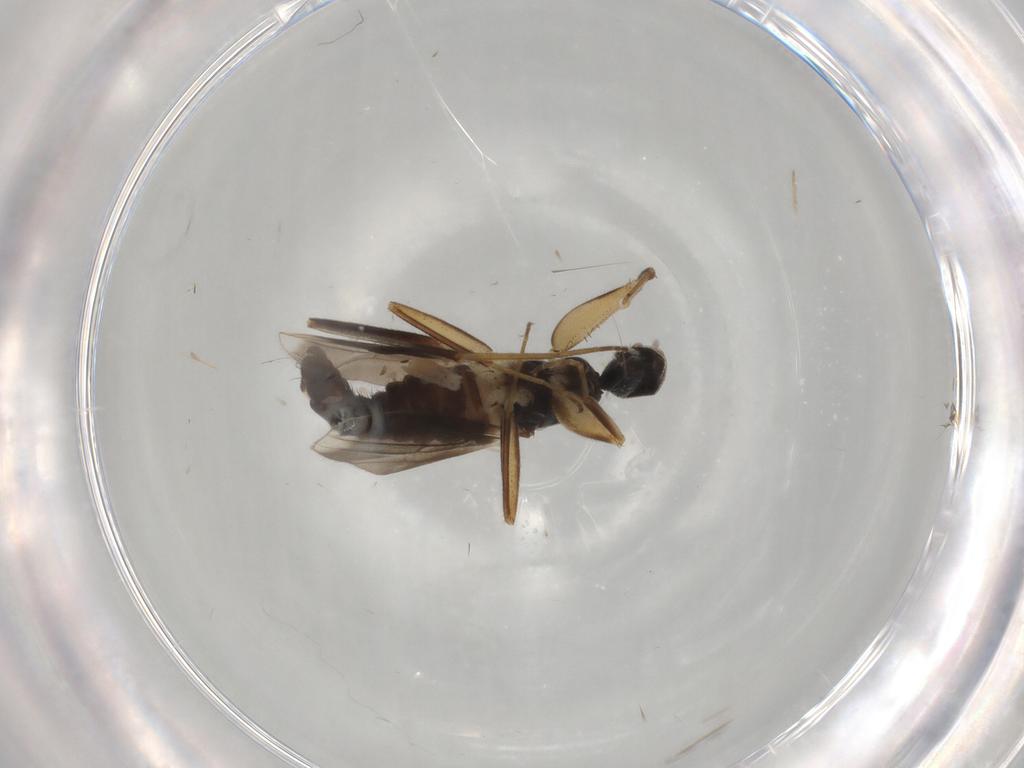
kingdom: Animalia
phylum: Arthropoda
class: Insecta
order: Diptera
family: Hybotidae
